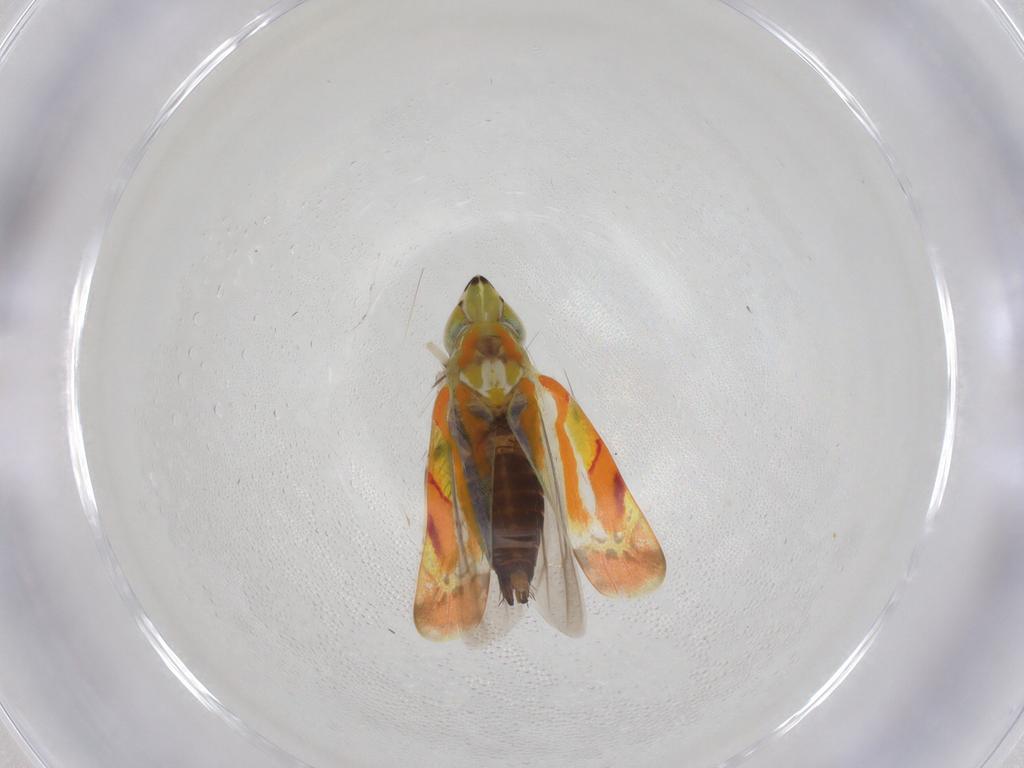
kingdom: Animalia
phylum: Arthropoda
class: Insecta
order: Hemiptera
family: Cicadellidae
